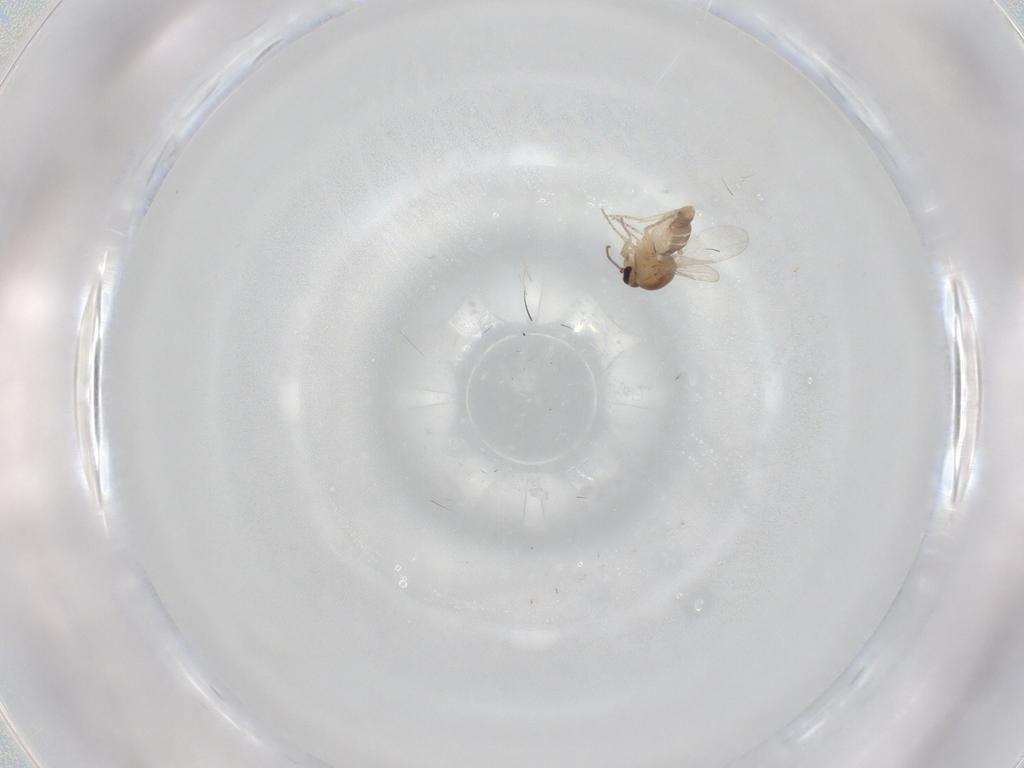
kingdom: Animalia
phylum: Arthropoda
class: Insecta
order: Diptera
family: Ceratopogonidae
